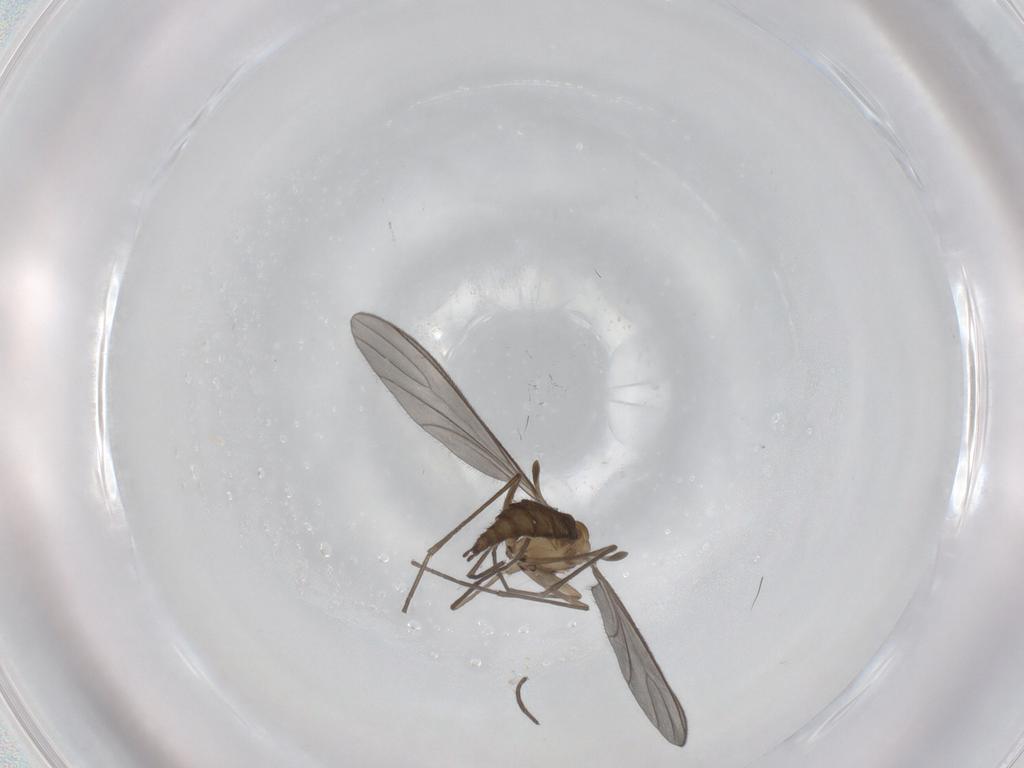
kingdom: Animalia
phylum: Arthropoda
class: Insecta
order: Diptera
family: Sciaridae
